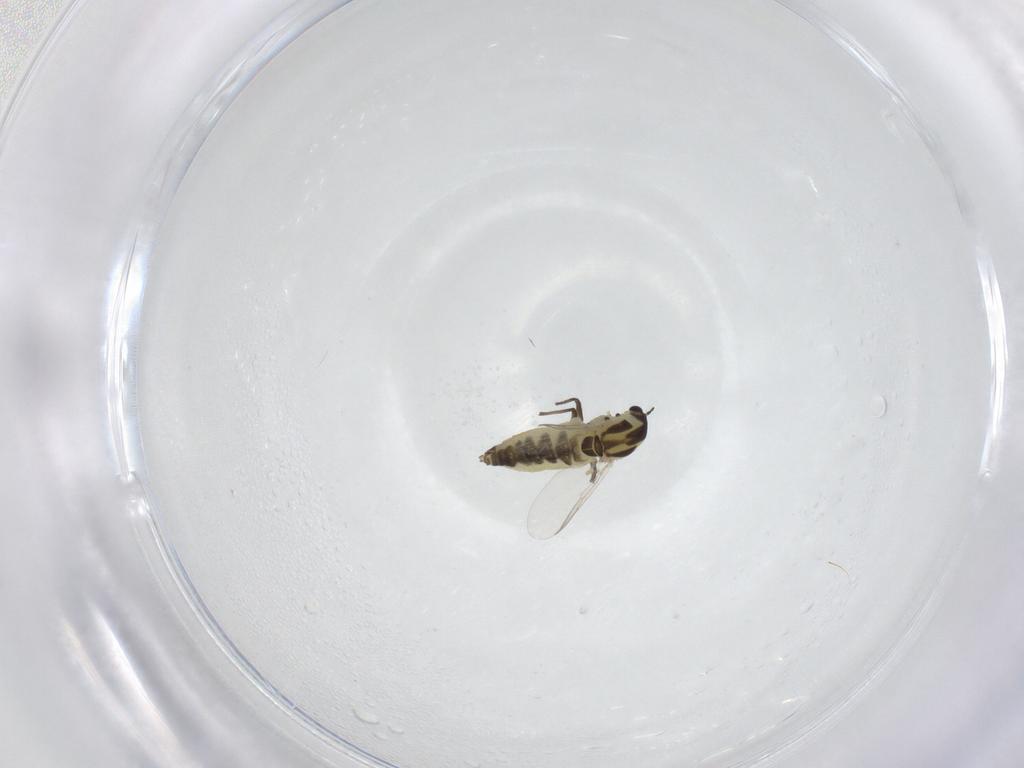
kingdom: Animalia
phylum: Arthropoda
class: Insecta
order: Diptera
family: Chironomidae
